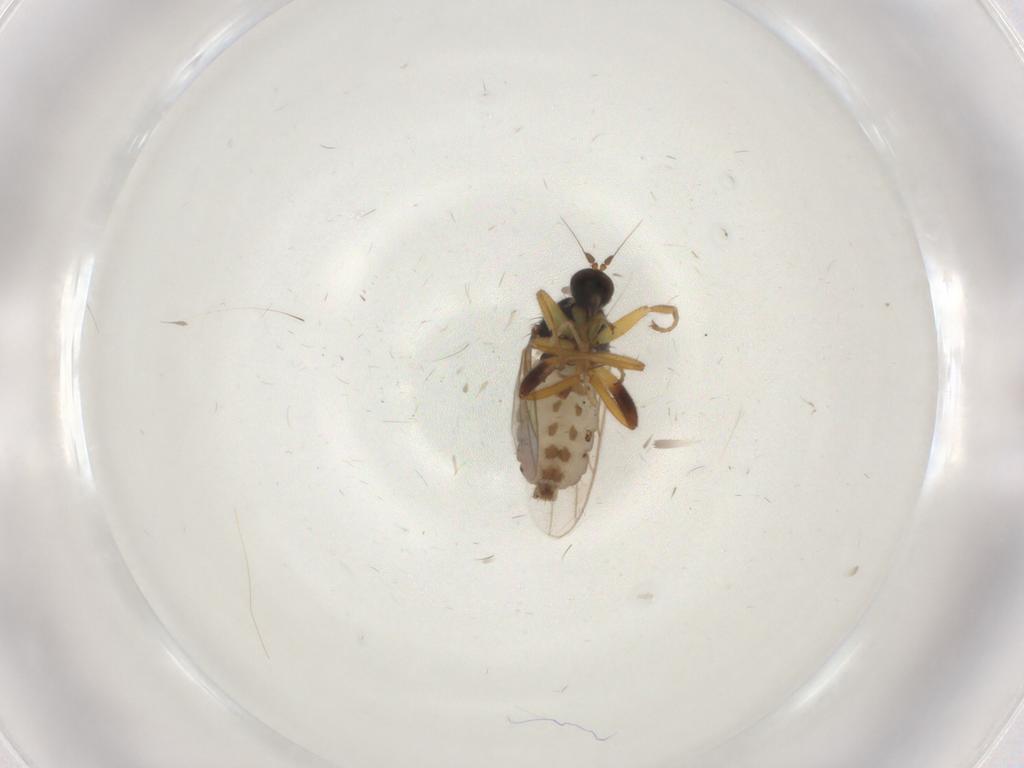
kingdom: Animalia
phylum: Arthropoda
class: Insecta
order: Diptera
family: Hybotidae
